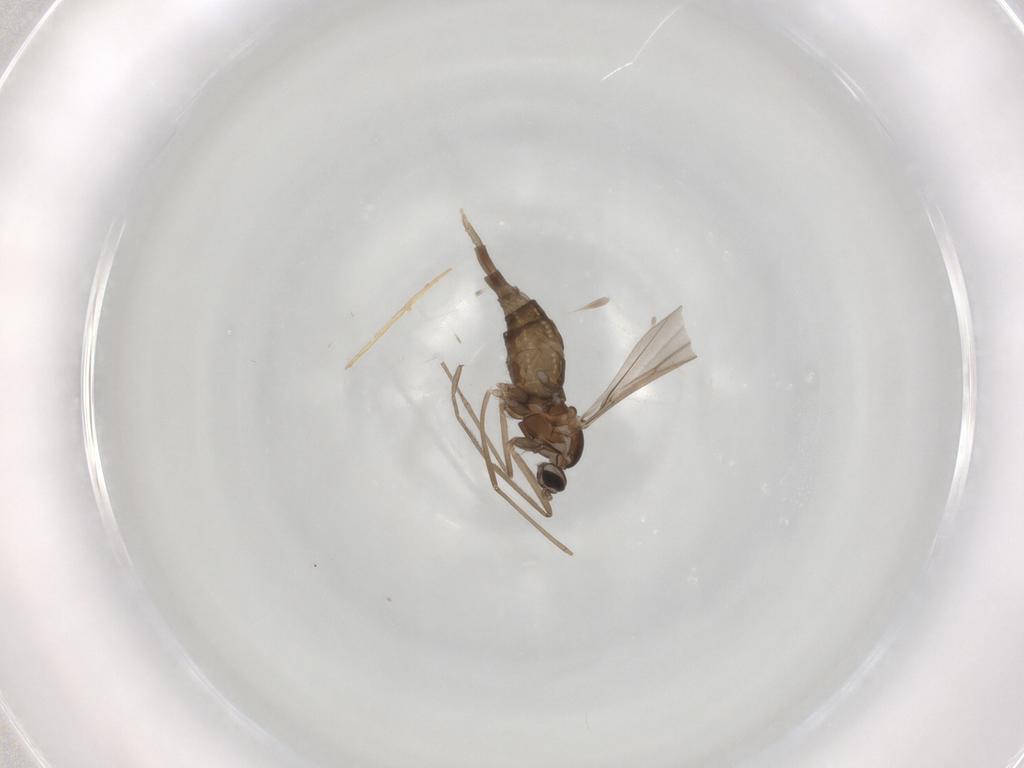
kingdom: Animalia
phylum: Arthropoda
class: Insecta
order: Diptera
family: Cecidomyiidae
